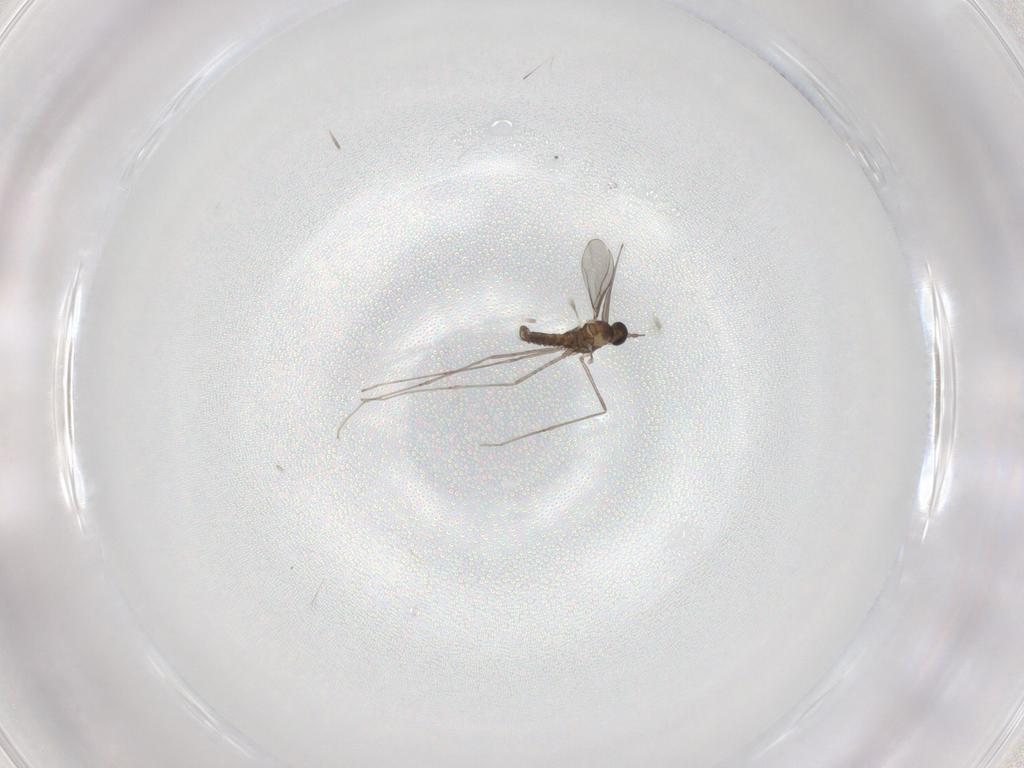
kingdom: Animalia
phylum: Arthropoda
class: Insecta
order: Diptera
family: Cecidomyiidae
